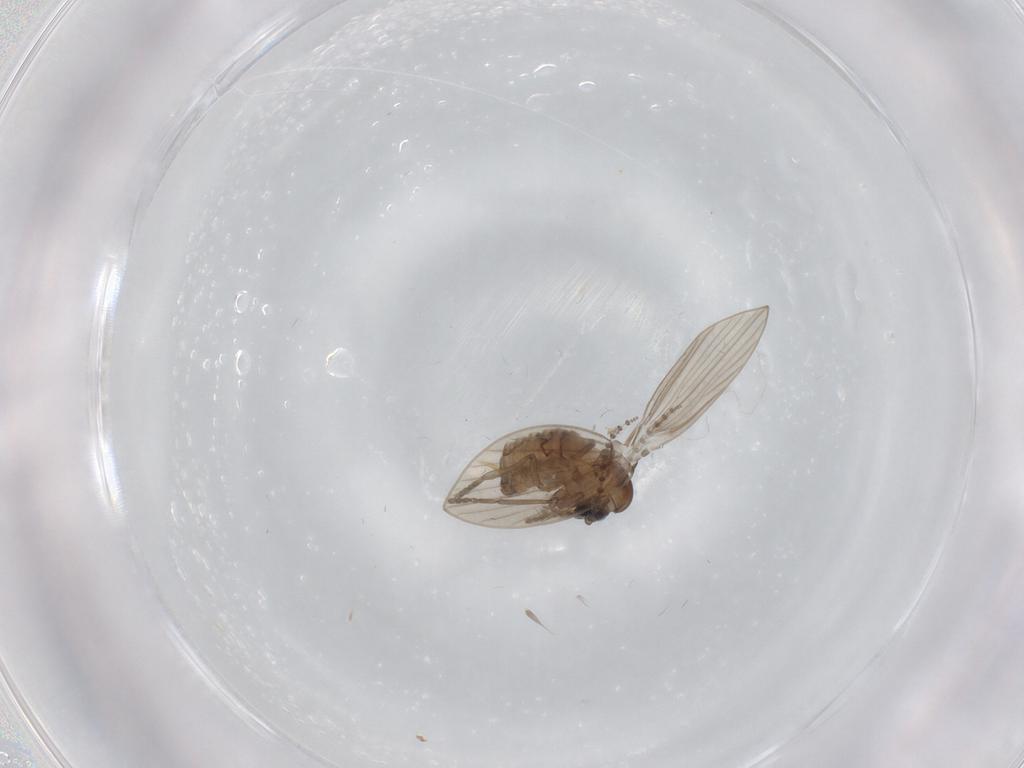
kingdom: Animalia
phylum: Arthropoda
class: Insecta
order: Diptera
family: Psychodidae
